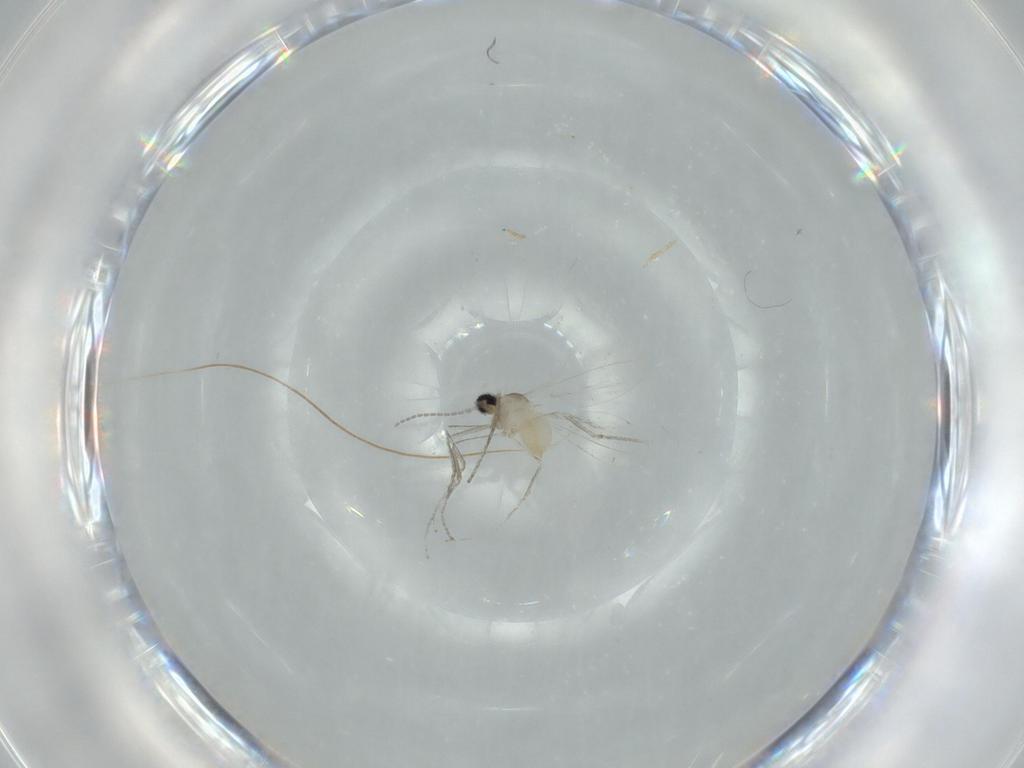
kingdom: Animalia
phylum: Arthropoda
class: Insecta
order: Diptera
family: Cecidomyiidae
